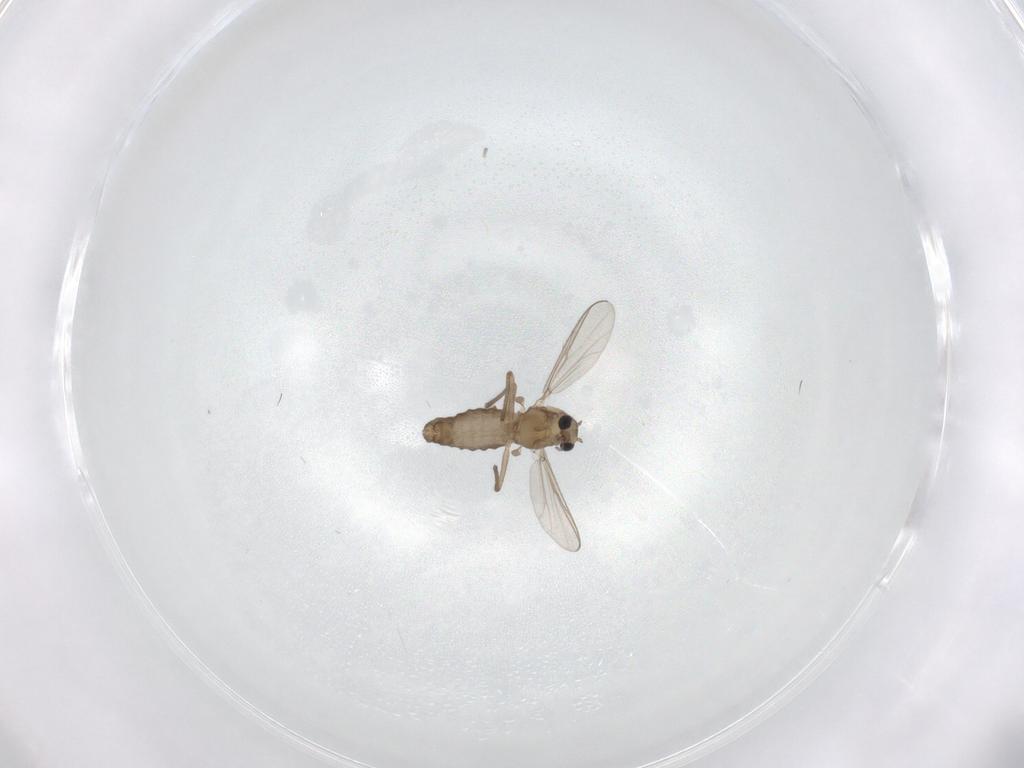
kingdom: Animalia
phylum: Arthropoda
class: Insecta
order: Diptera
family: Chironomidae
